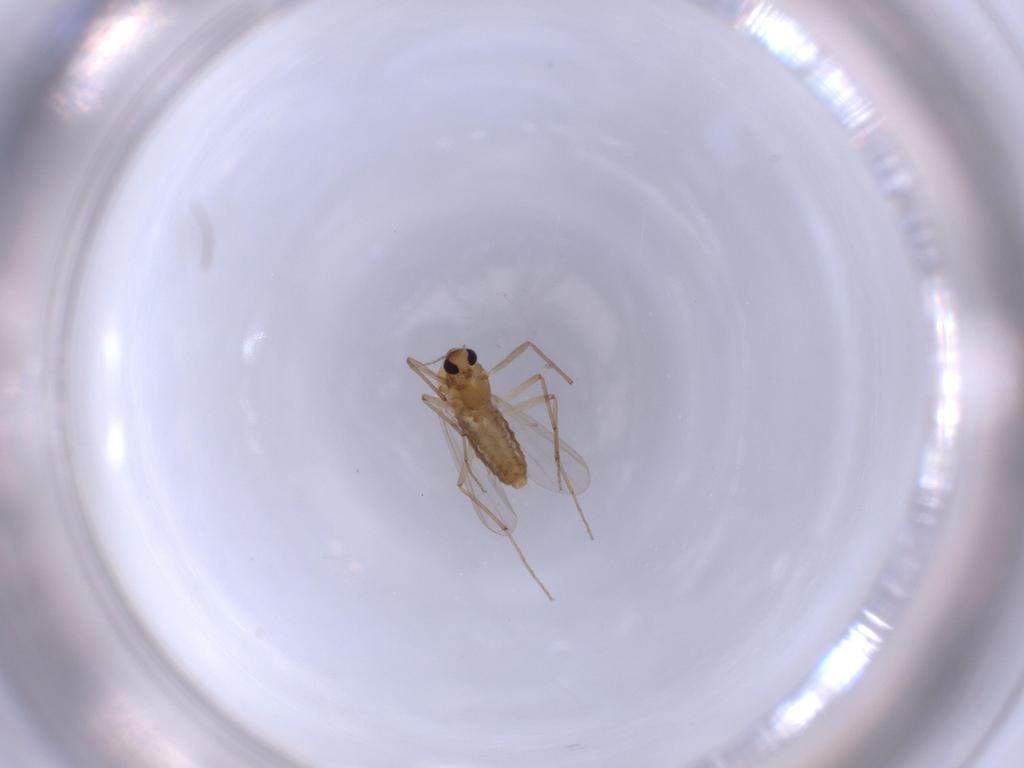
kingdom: Animalia
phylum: Arthropoda
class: Insecta
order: Diptera
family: Chironomidae
